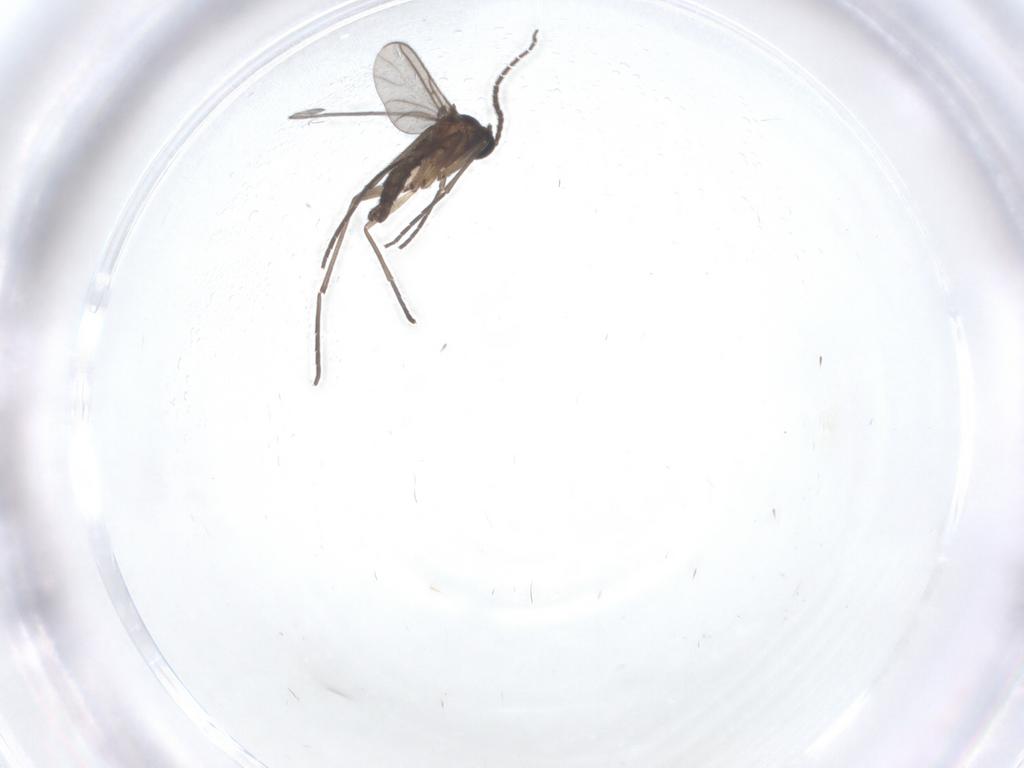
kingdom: Animalia
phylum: Arthropoda
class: Insecta
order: Diptera
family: Sciaridae
